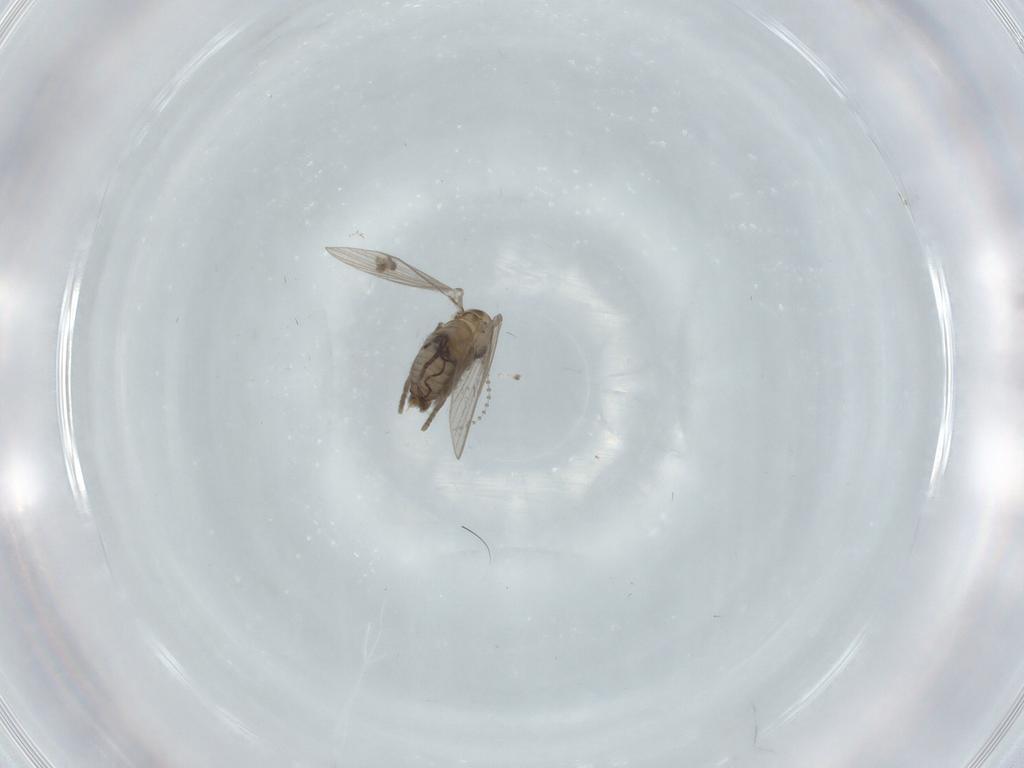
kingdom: Animalia
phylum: Arthropoda
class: Insecta
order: Diptera
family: Psychodidae
